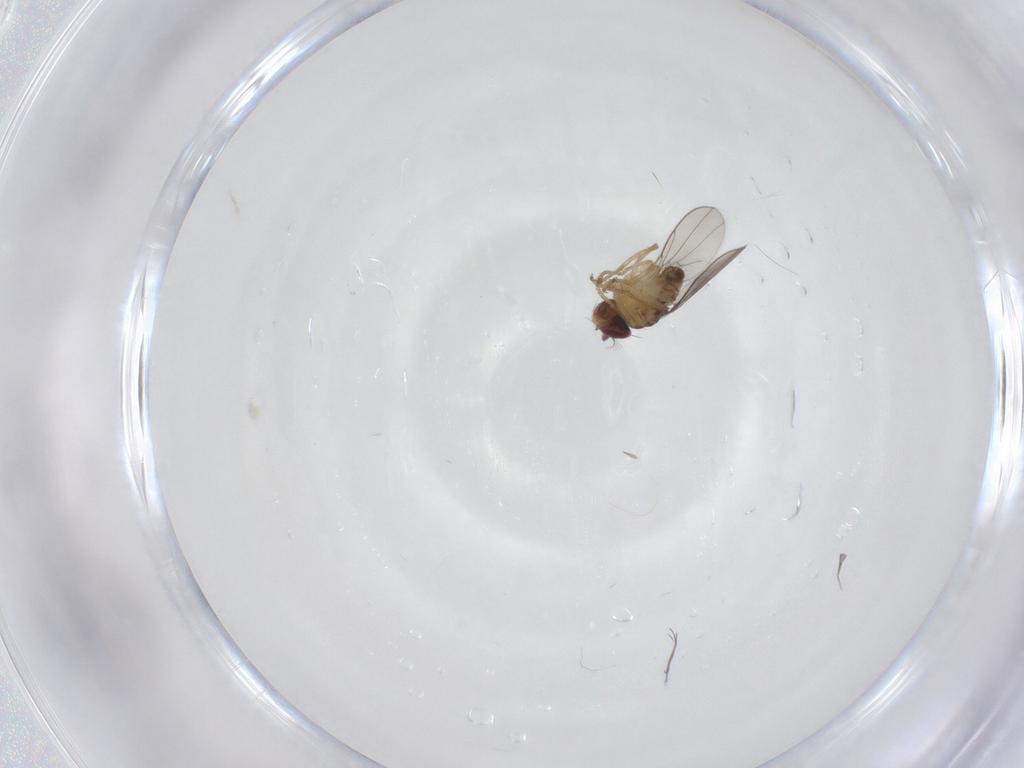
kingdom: Animalia
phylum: Arthropoda
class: Insecta
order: Diptera
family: Ephydridae
